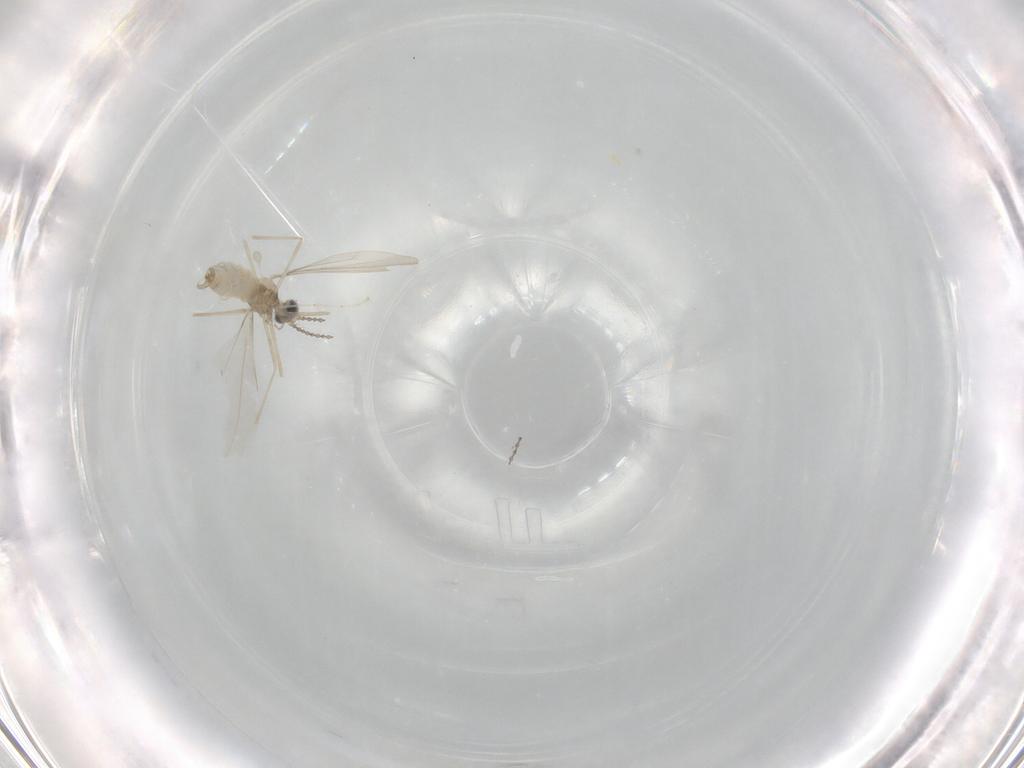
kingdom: Animalia
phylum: Arthropoda
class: Insecta
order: Diptera
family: Cecidomyiidae
